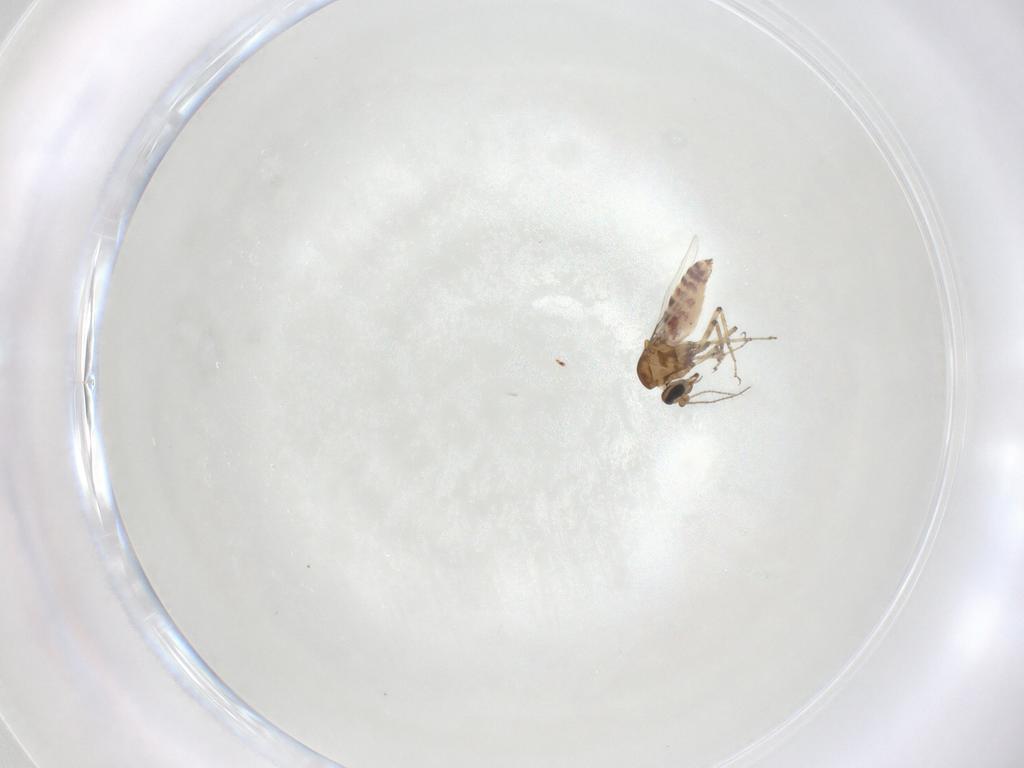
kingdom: Animalia
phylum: Arthropoda
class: Insecta
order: Diptera
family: Ceratopogonidae
